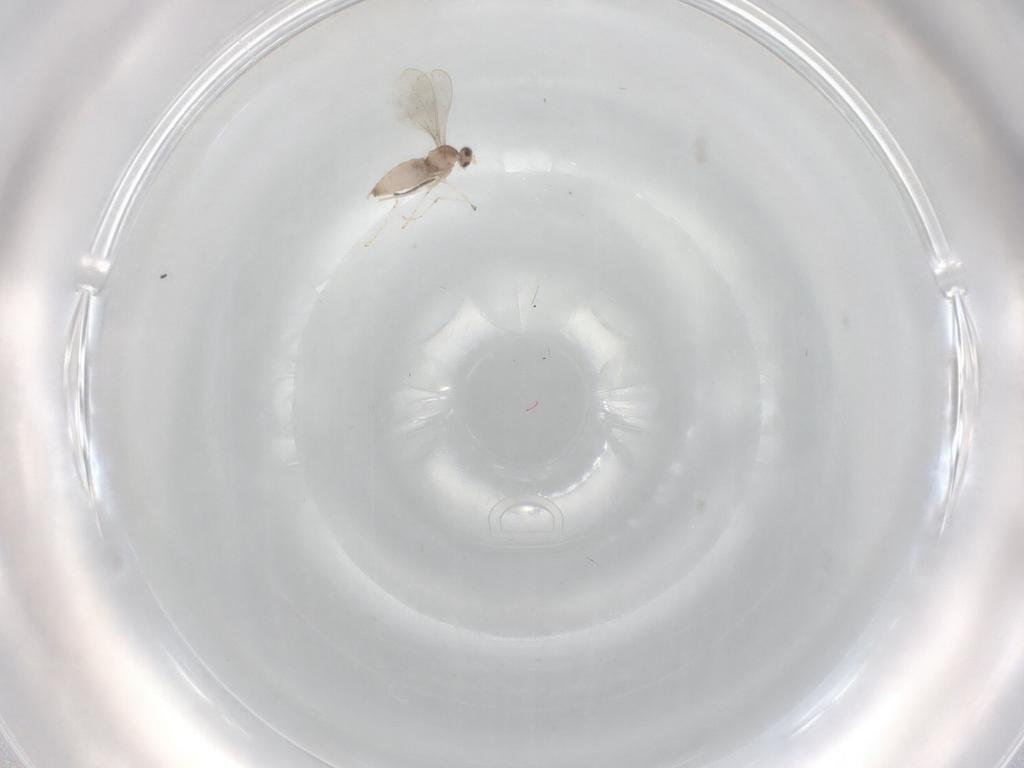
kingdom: Animalia
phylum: Arthropoda
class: Insecta
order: Diptera
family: Cecidomyiidae
